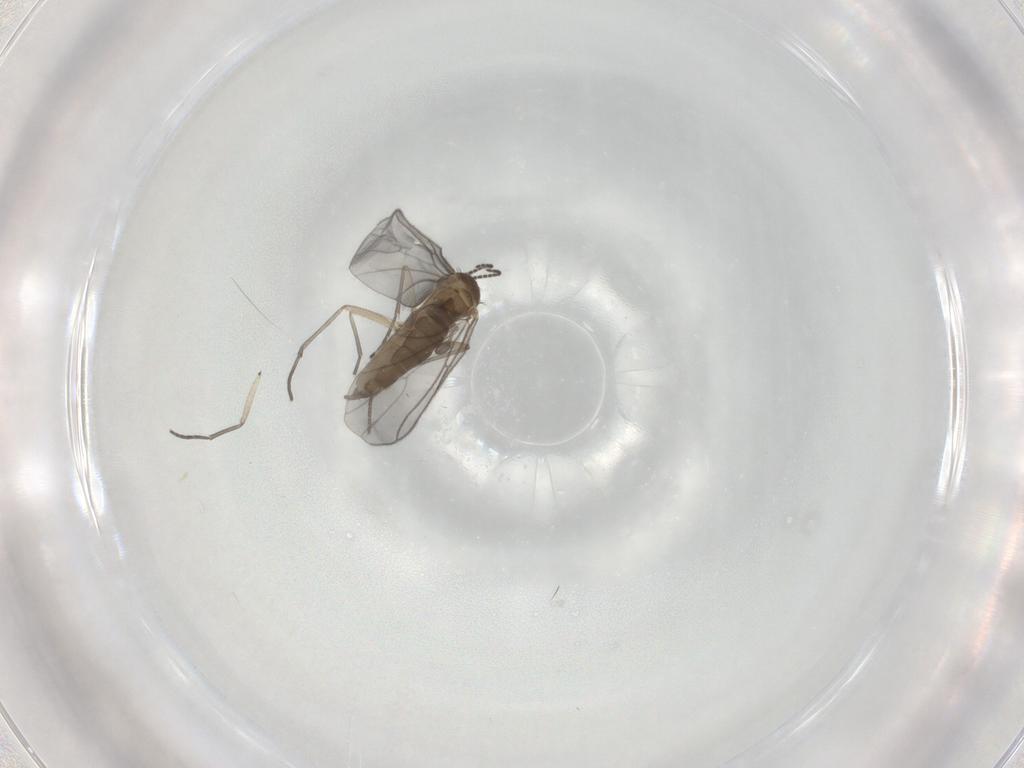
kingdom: Animalia
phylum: Arthropoda
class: Insecta
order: Diptera
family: Sciaridae
